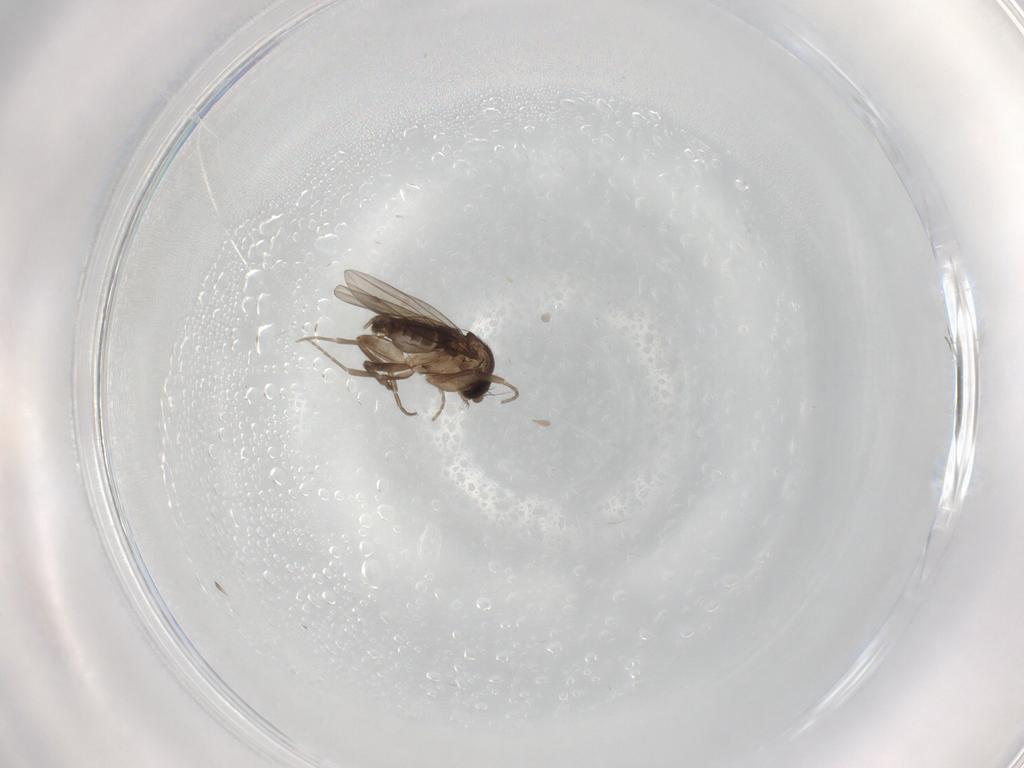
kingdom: Animalia
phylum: Arthropoda
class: Insecta
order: Diptera
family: Phoridae
